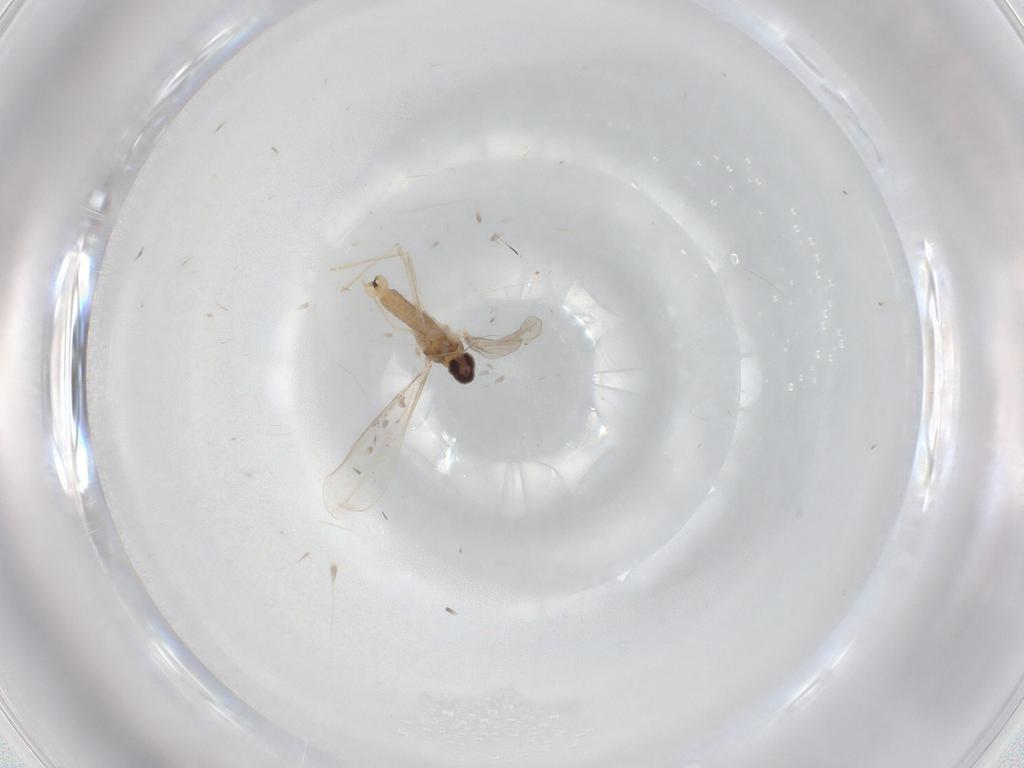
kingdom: Animalia
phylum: Arthropoda
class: Insecta
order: Diptera
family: Cecidomyiidae
